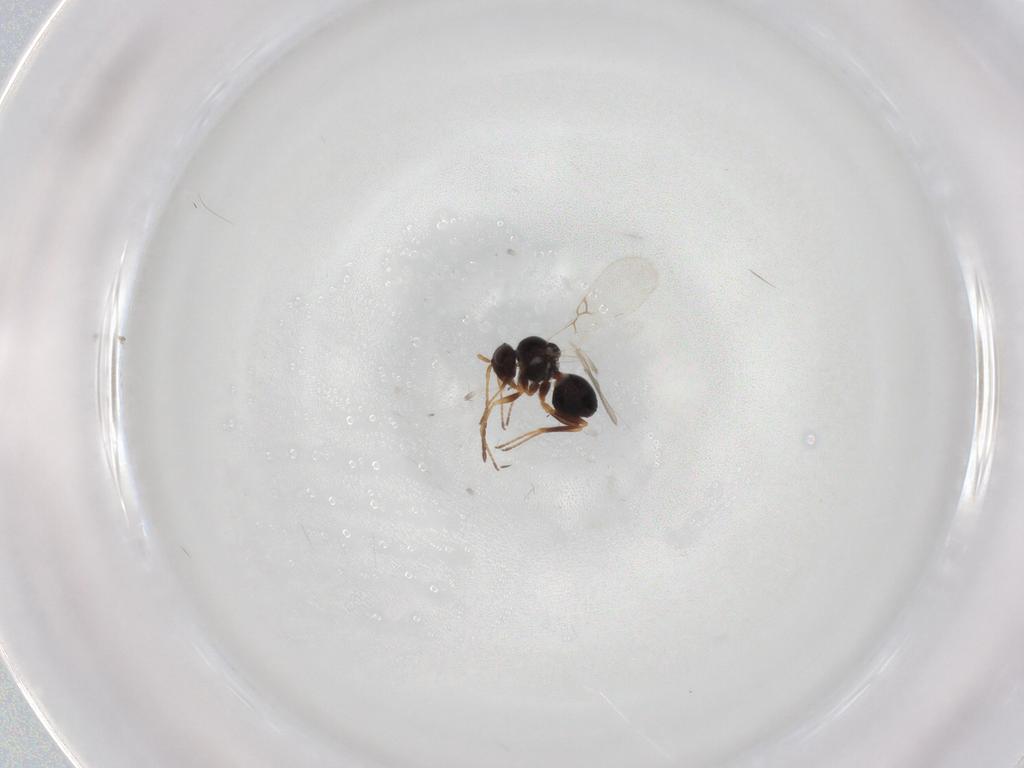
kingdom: Animalia
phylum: Arthropoda
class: Insecta
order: Hymenoptera
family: Figitidae
